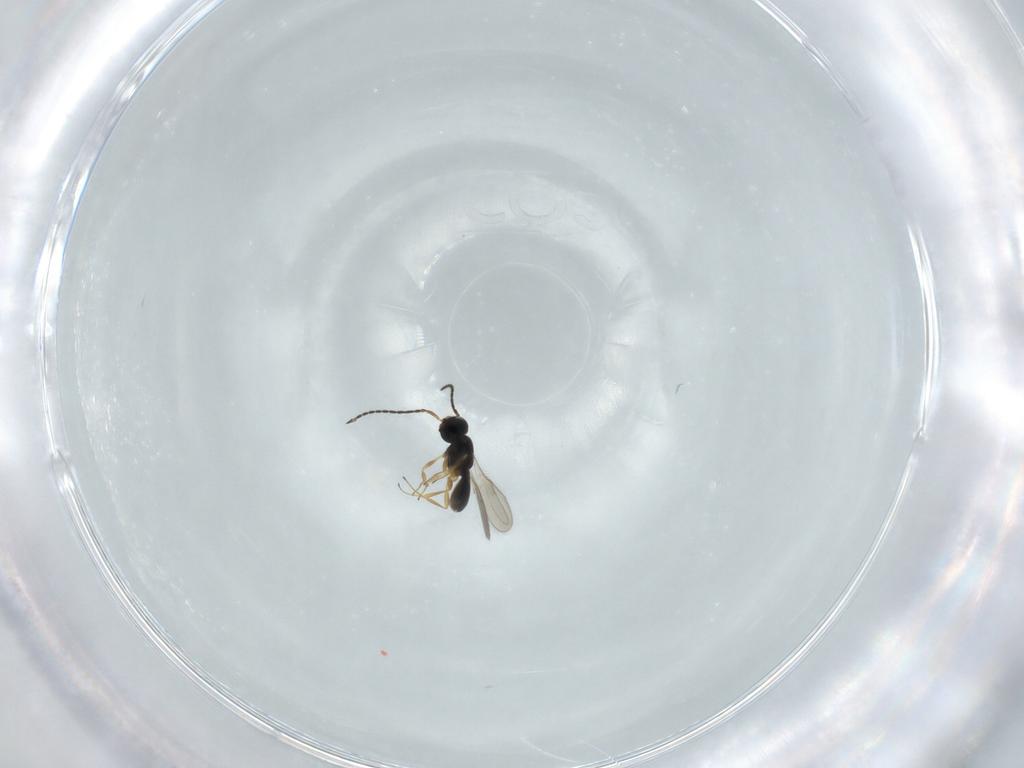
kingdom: Animalia
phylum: Arthropoda
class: Insecta
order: Hymenoptera
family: Scelionidae
